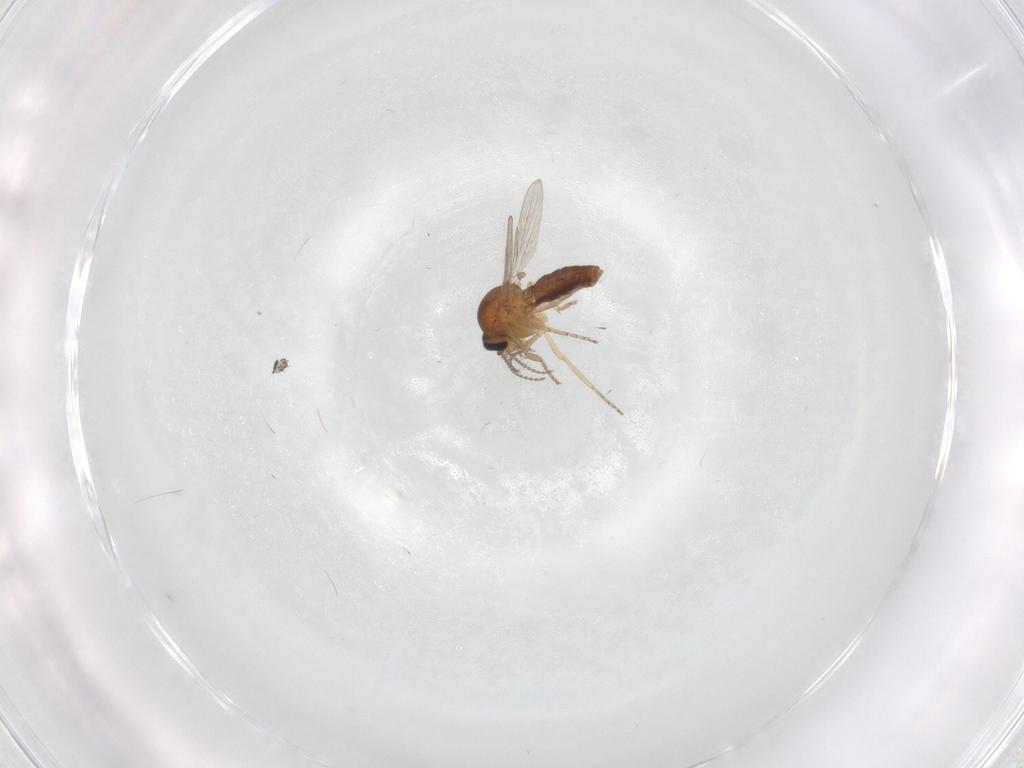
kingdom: Animalia
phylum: Arthropoda
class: Insecta
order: Diptera
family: Ceratopogonidae
